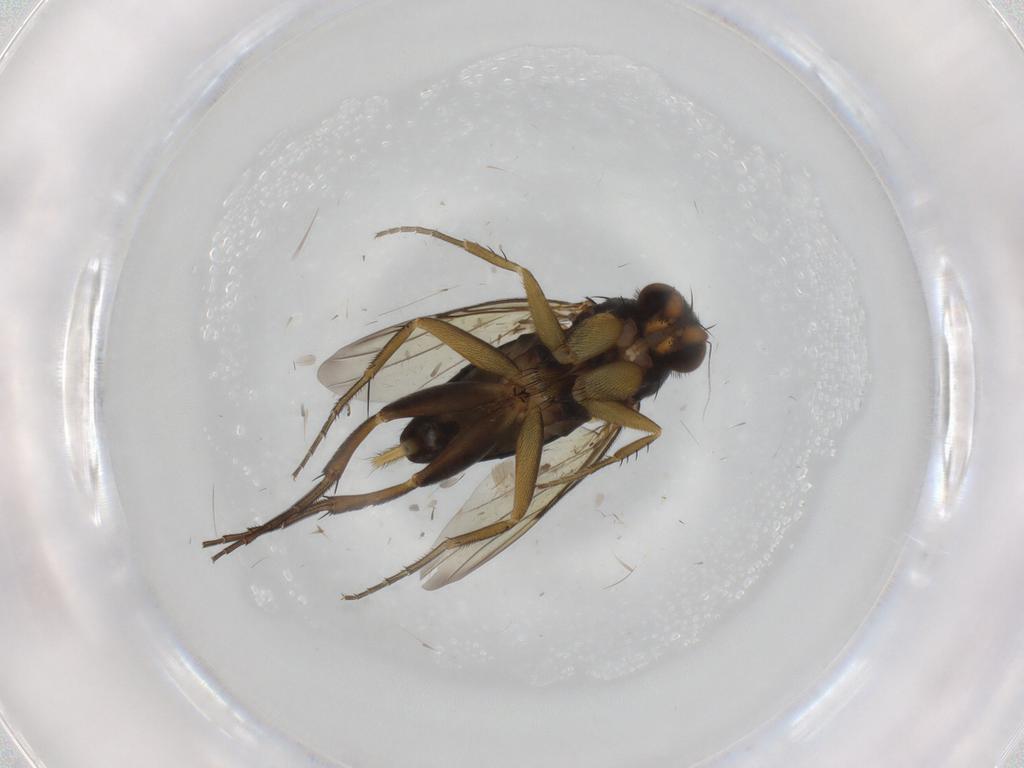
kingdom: Animalia
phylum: Arthropoda
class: Insecta
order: Diptera
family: Phoridae
